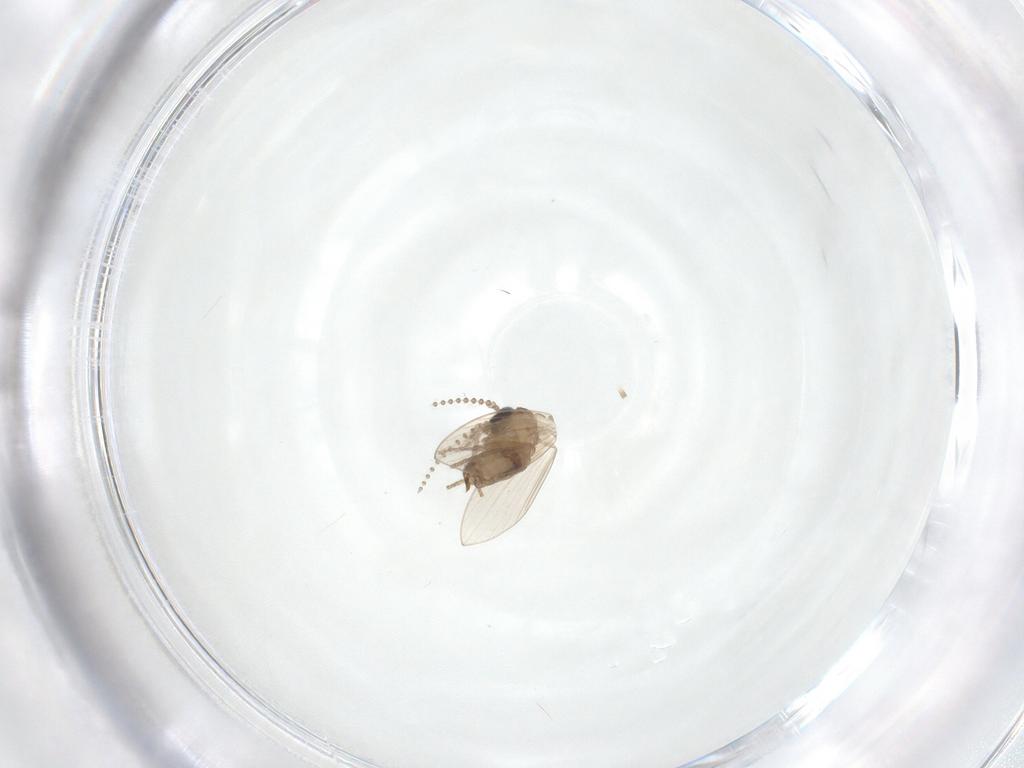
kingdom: Animalia
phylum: Arthropoda
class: Insecta
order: Diptera
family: Psychodidae
